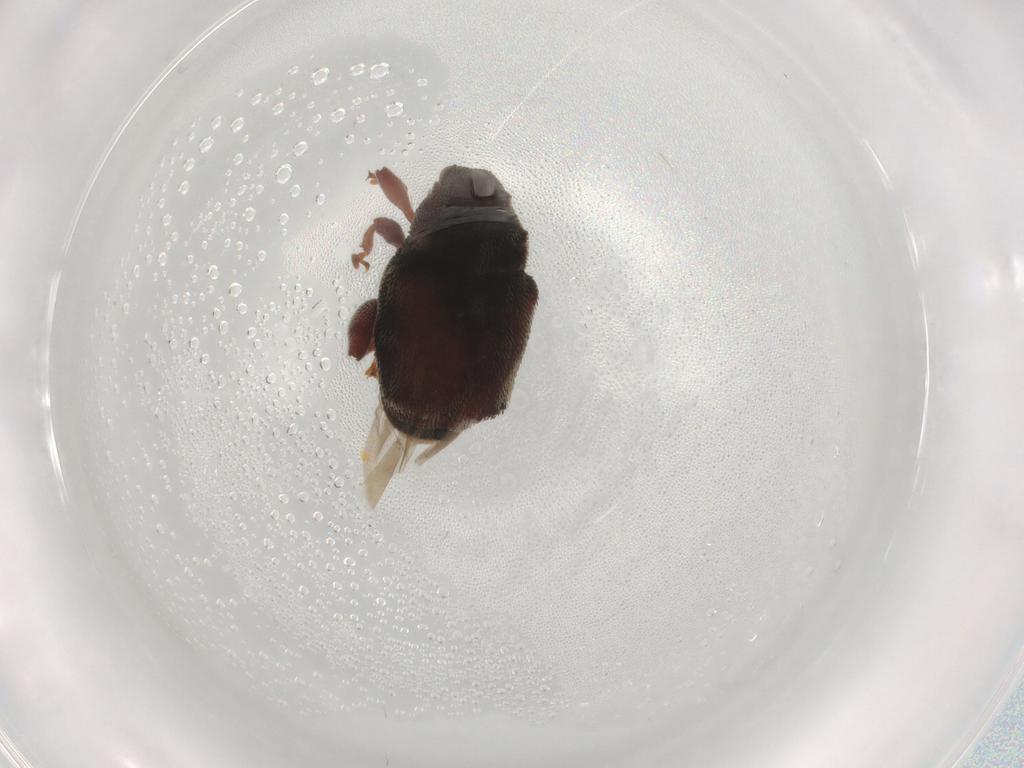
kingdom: Animalia
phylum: Arthropoda
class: Insecta
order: Coleoptera
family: Curculionidae
